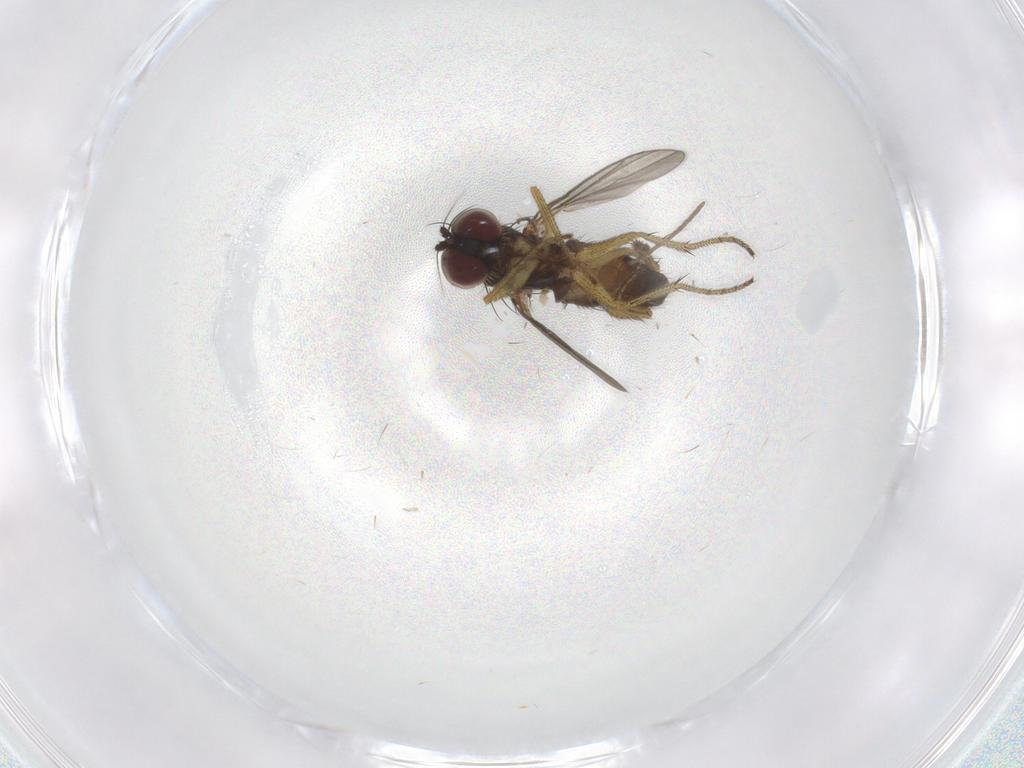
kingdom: Animalia
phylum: Arthropoda
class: Insecta
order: Diptera
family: Chironomidae
